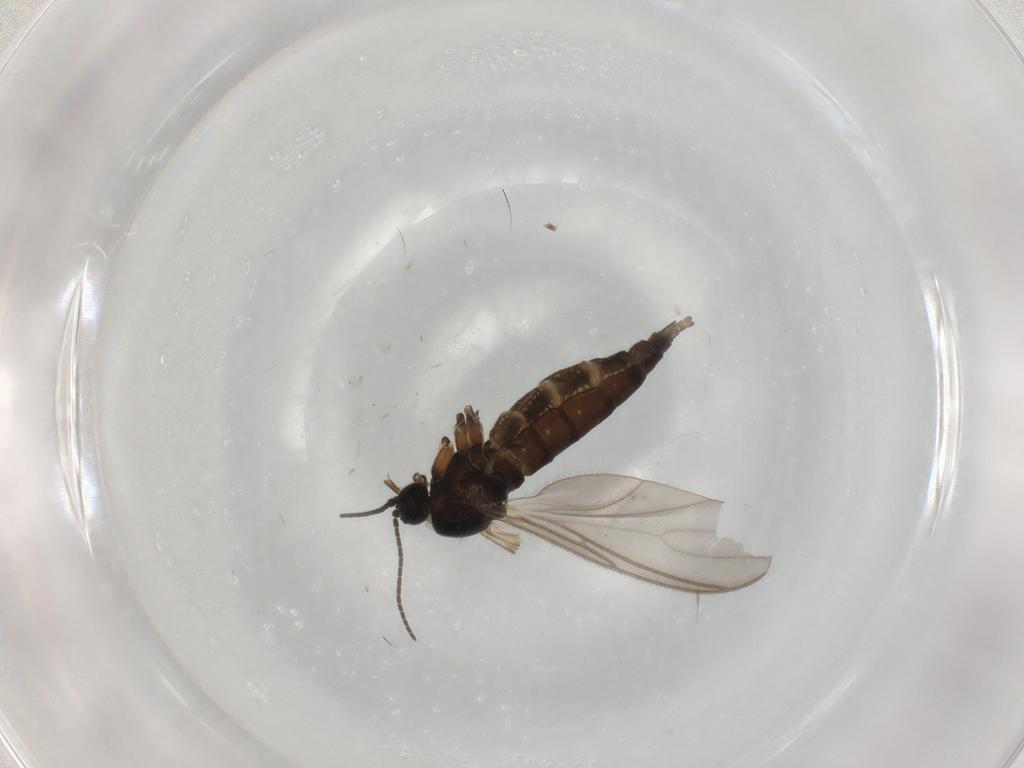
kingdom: Animalia
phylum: Arthropoda
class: Insecta
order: Diptera
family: Sciaridae
